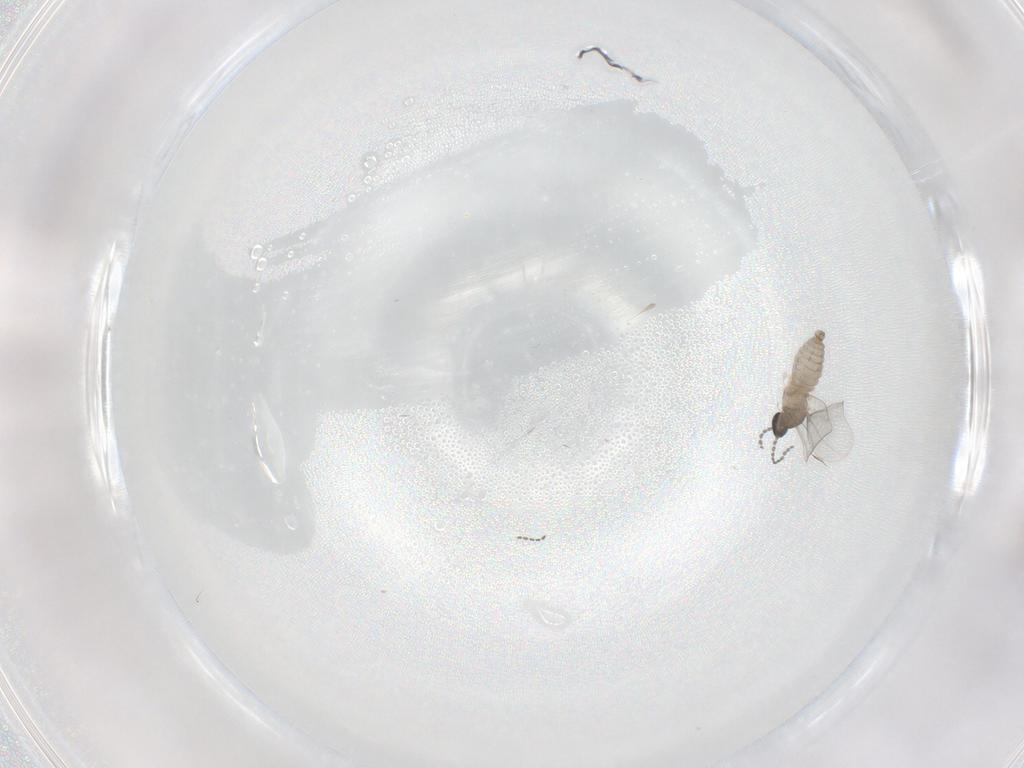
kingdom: Animalia
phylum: Arthropoda
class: Insecta
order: Diptera
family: Cecidomyiidae
